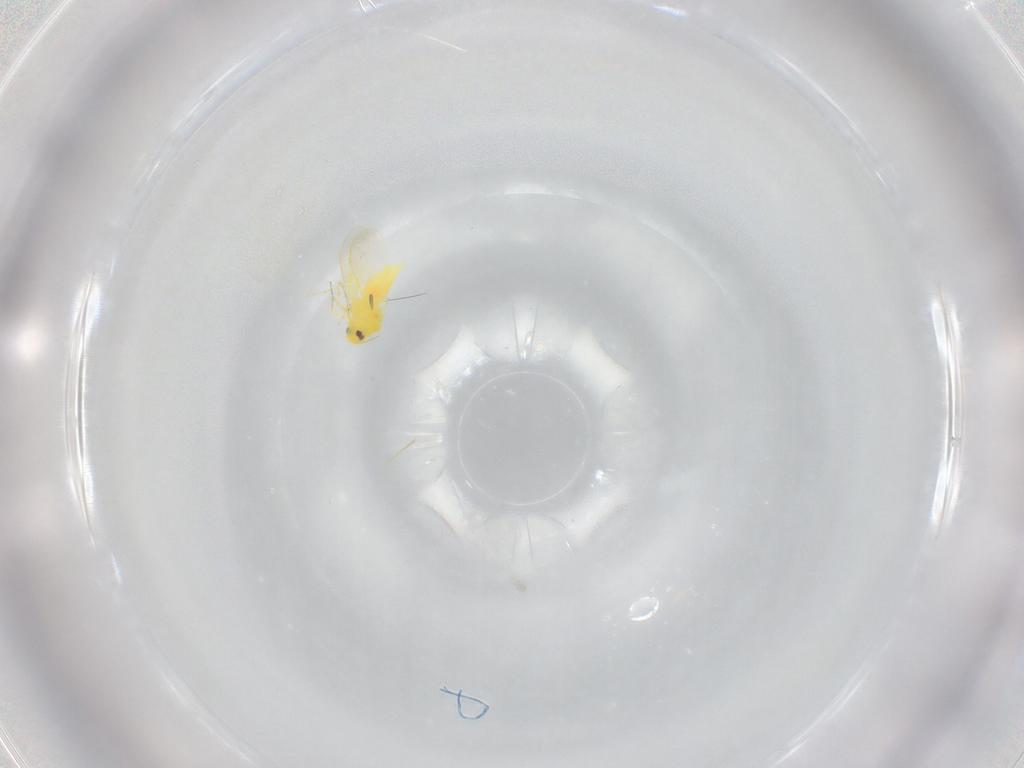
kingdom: Animalia
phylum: Arthropoda
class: Insecta
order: Hemiptera
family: Aleyrodidae
